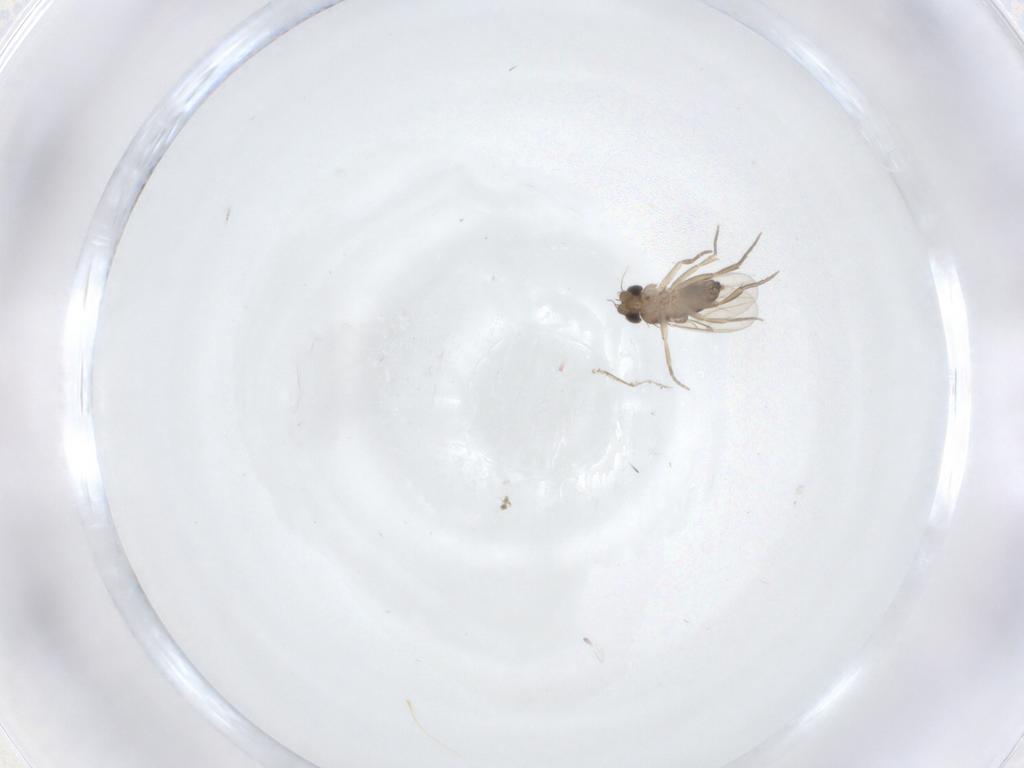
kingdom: Animalia
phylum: Arthropoda
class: Insecta
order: Diptera
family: Phoridae
